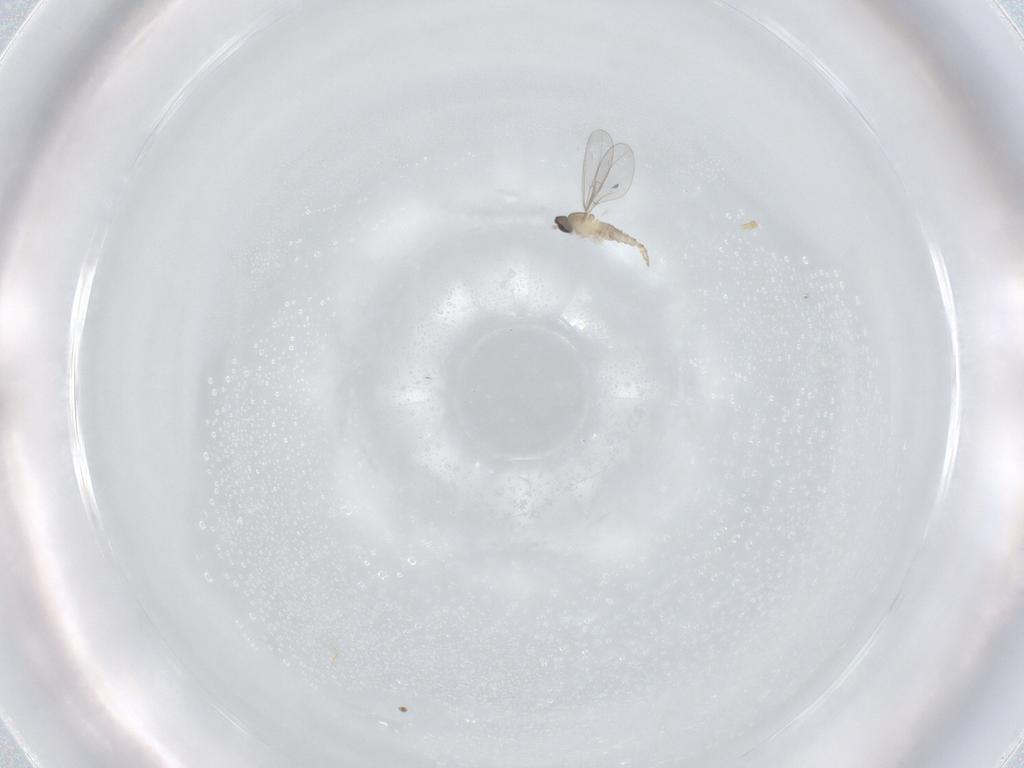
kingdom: Animalia
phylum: Arthropoda
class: Insecta
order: Diptera
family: Cecidomyiidae
